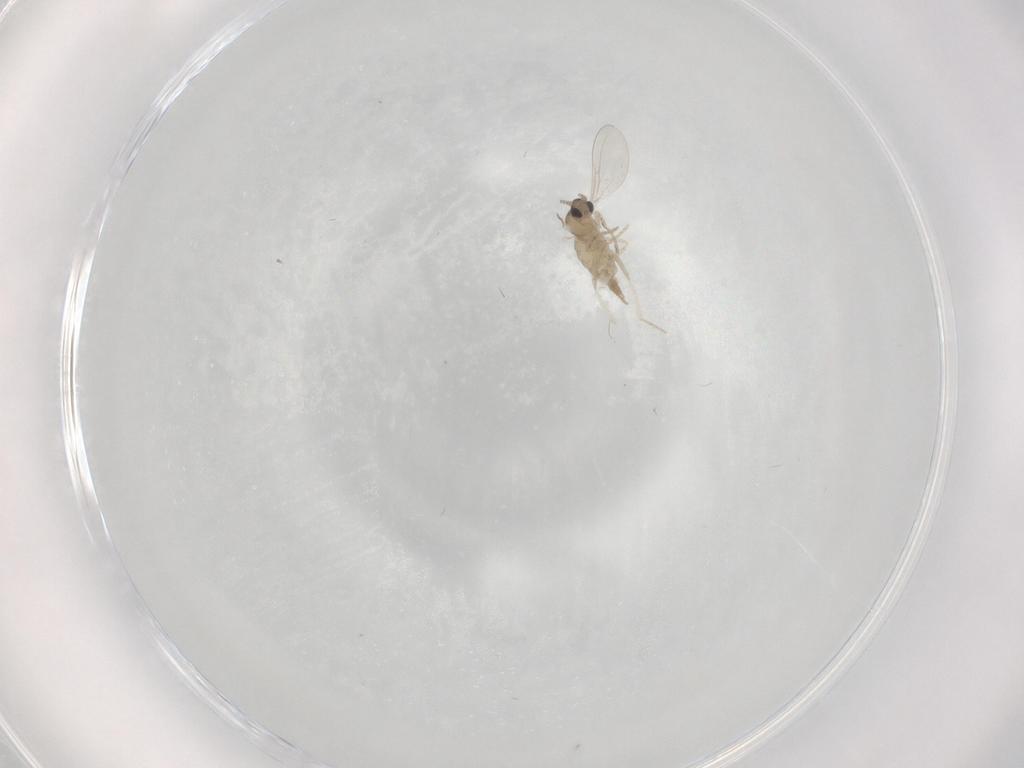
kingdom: Animalia
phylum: Arthropoda
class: Insecta
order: Diptera
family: Cecidomyiidae
